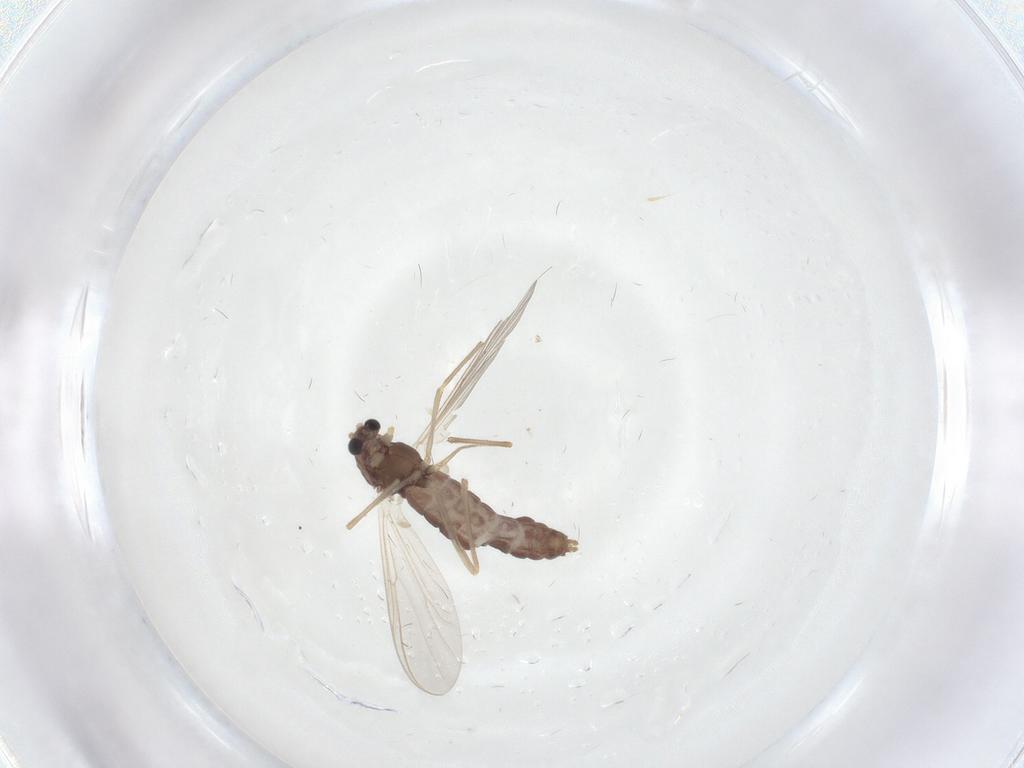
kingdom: Animalia
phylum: Arthropoda
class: Insecta
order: Diptera
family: Chironomidae
